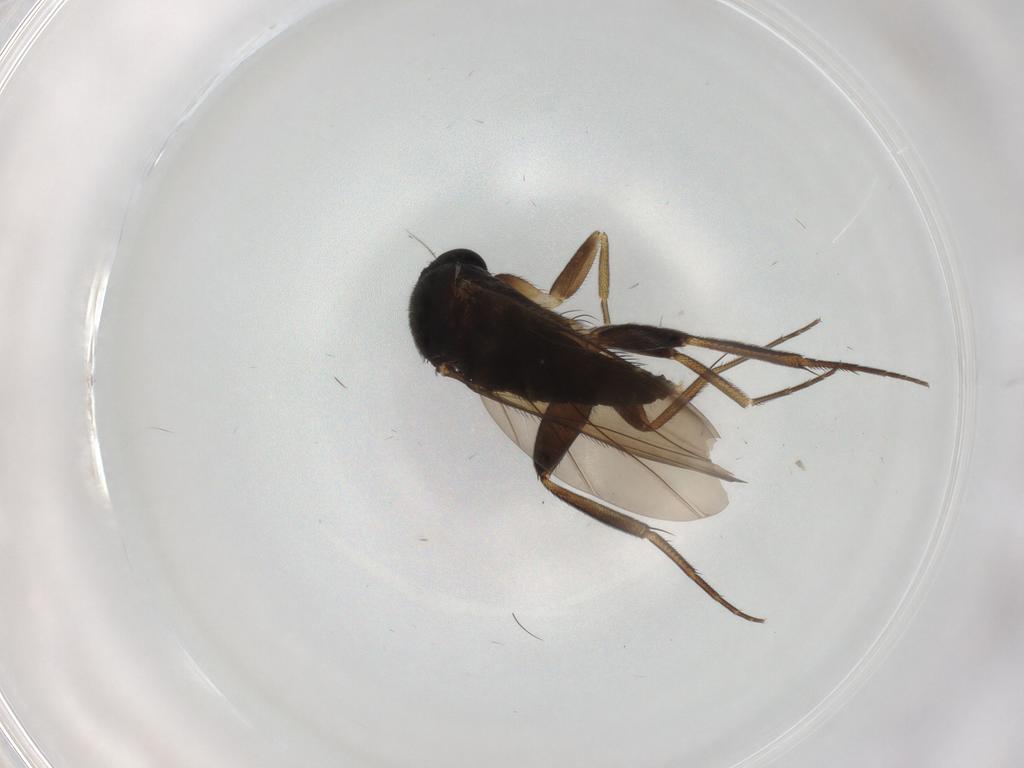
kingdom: Animalia
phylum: Arthropoda
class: Insecta
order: Diptera
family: Phoridae
